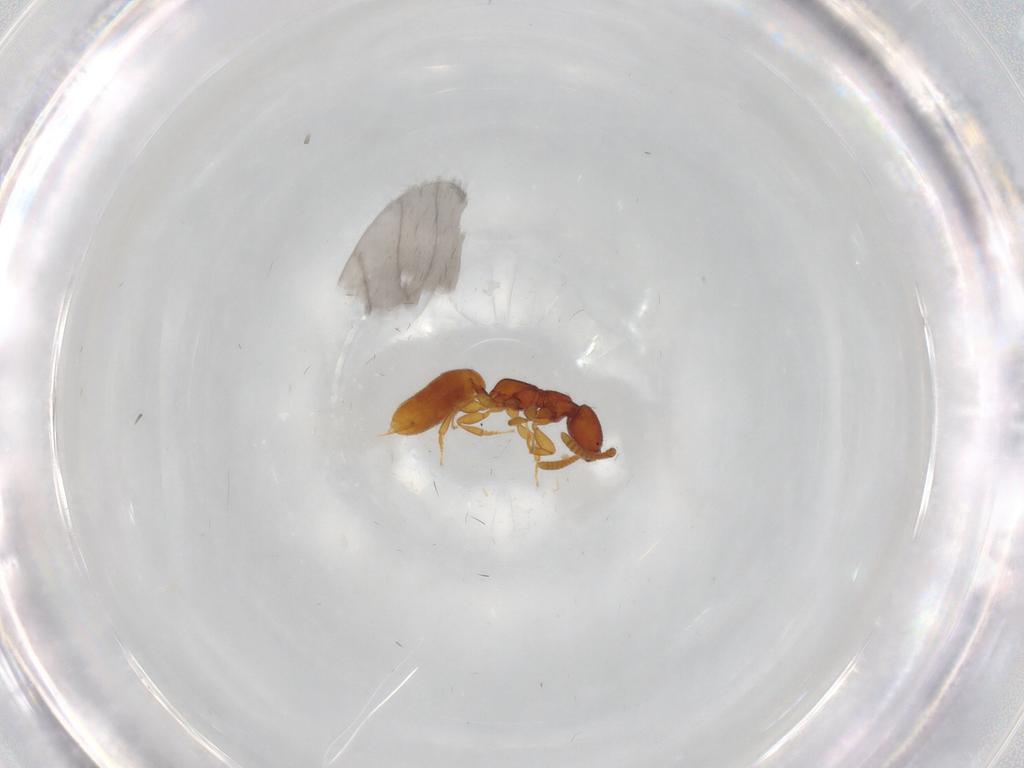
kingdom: Animalia
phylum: Arthropoda
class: Insecta
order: Hymenoptera
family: Bethylidae
